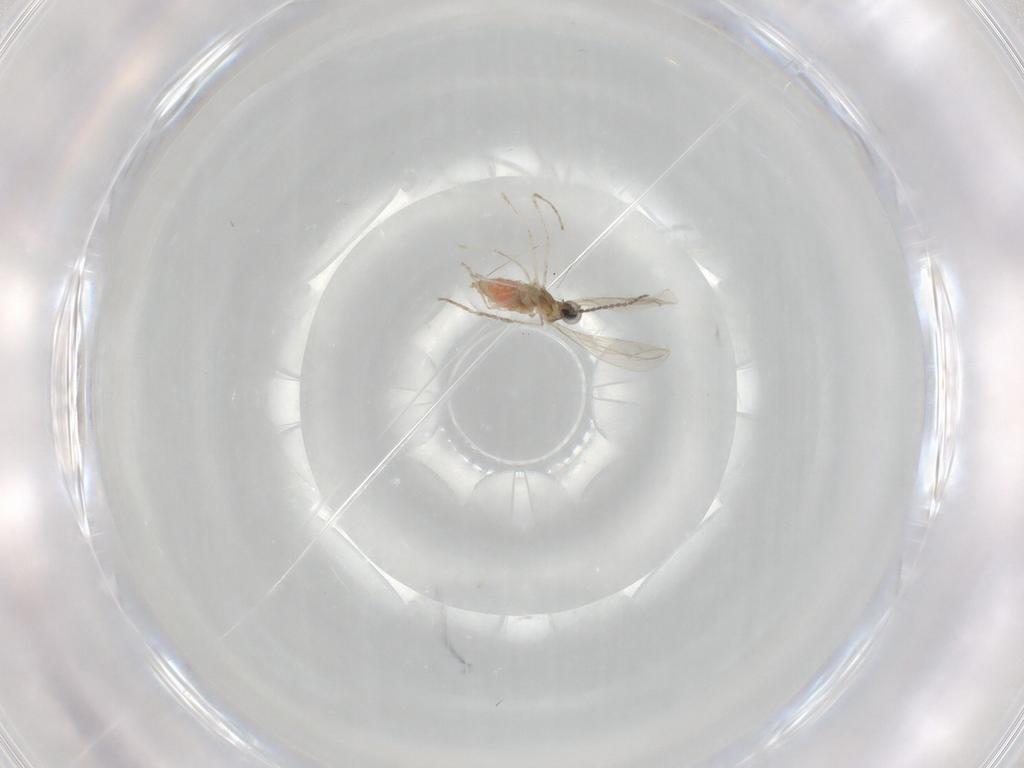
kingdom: Animalia
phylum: Arthropoda
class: Insecta
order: Diptera
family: Cecidomyiidae
